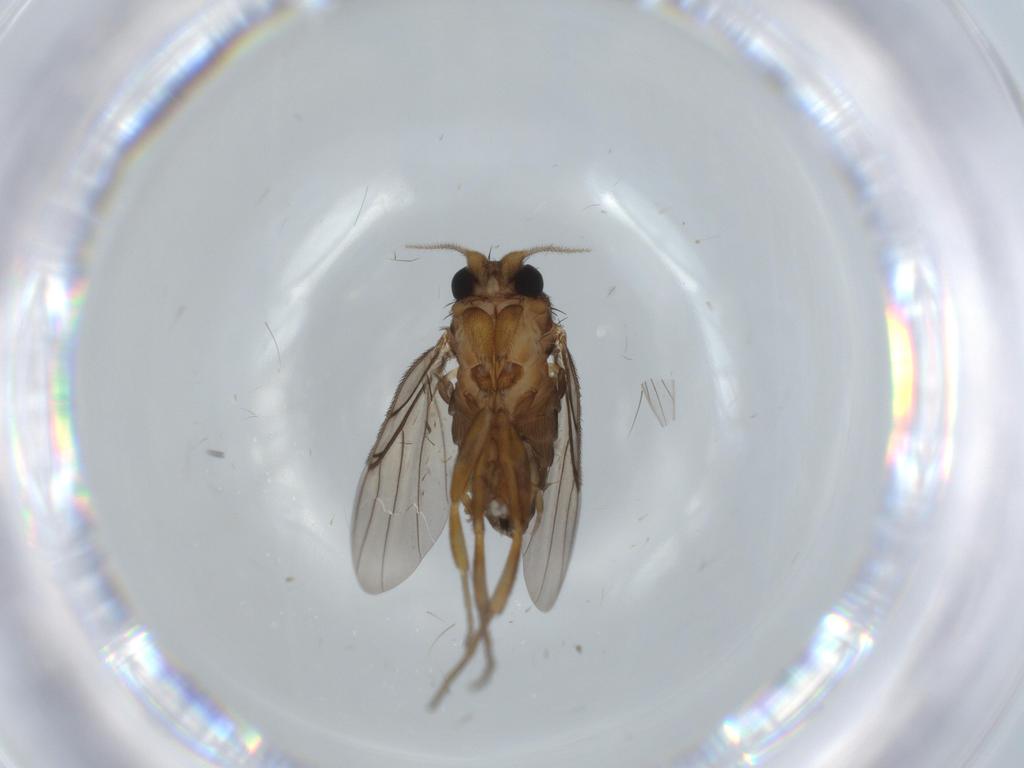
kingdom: Animalia
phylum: Arthropoda
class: Insecta
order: Diptera
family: Phoridae
